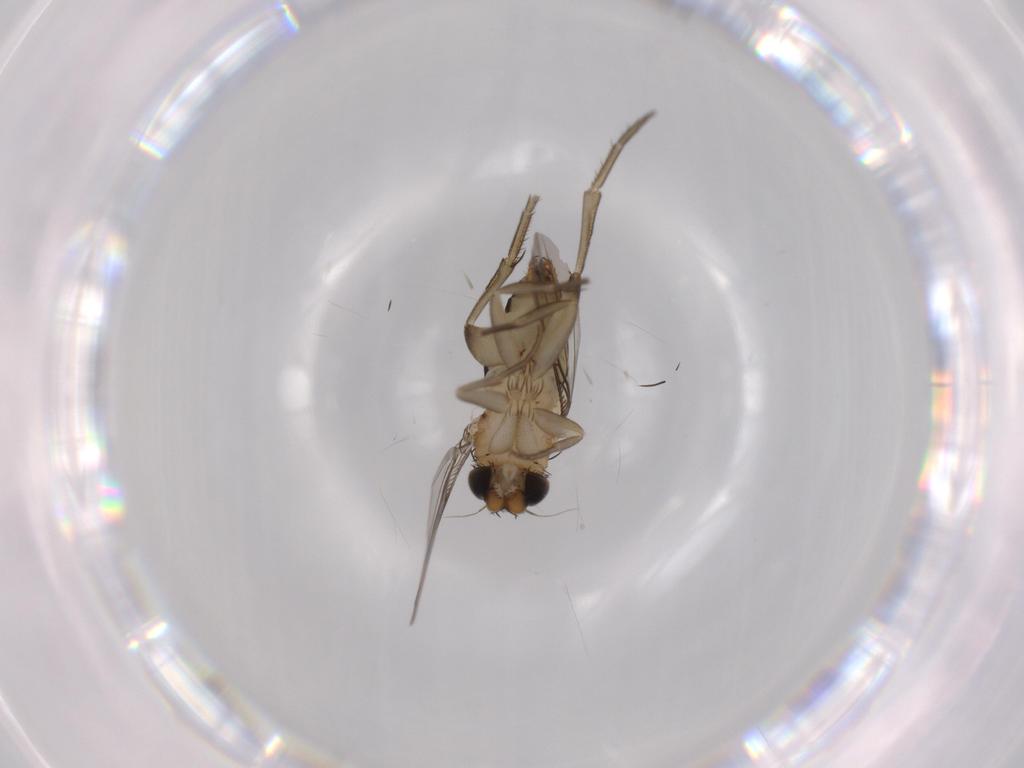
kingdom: Animalia
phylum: Arthropoda
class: Insecta
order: Diptera
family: Phoridae
